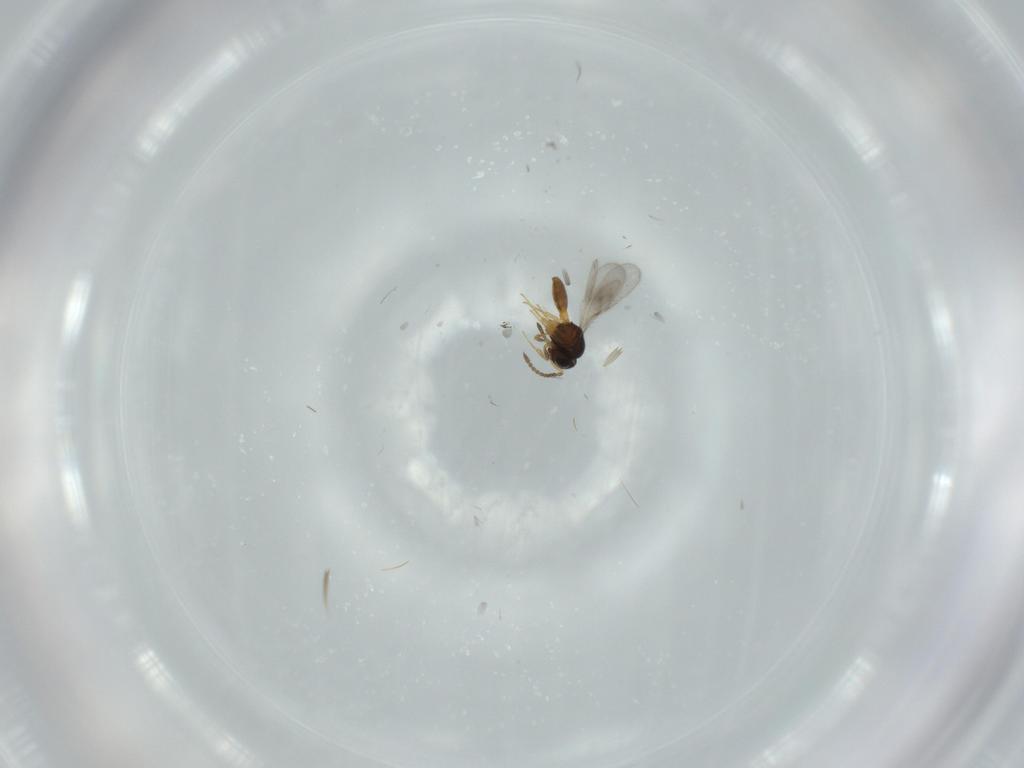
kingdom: Animalia
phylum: Arthropoda
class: Insecta
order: Hymenoptera
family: Scelionidae
